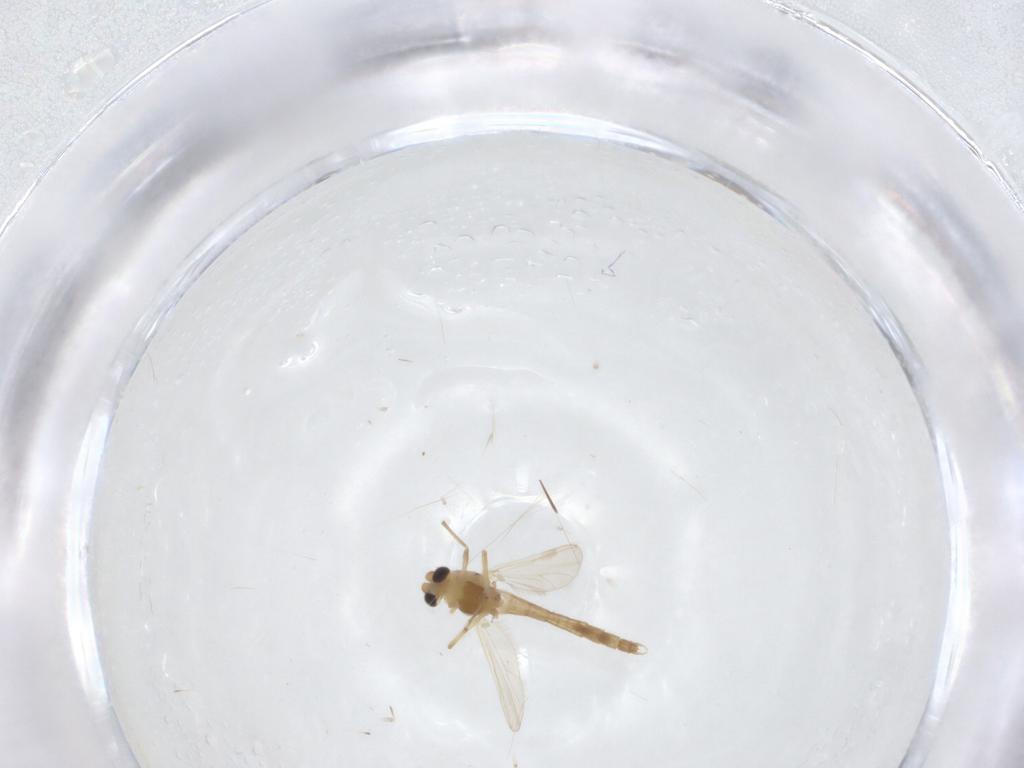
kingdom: Animalia
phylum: Arthropoda
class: Insecta
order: Diptera
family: Chironomidae
